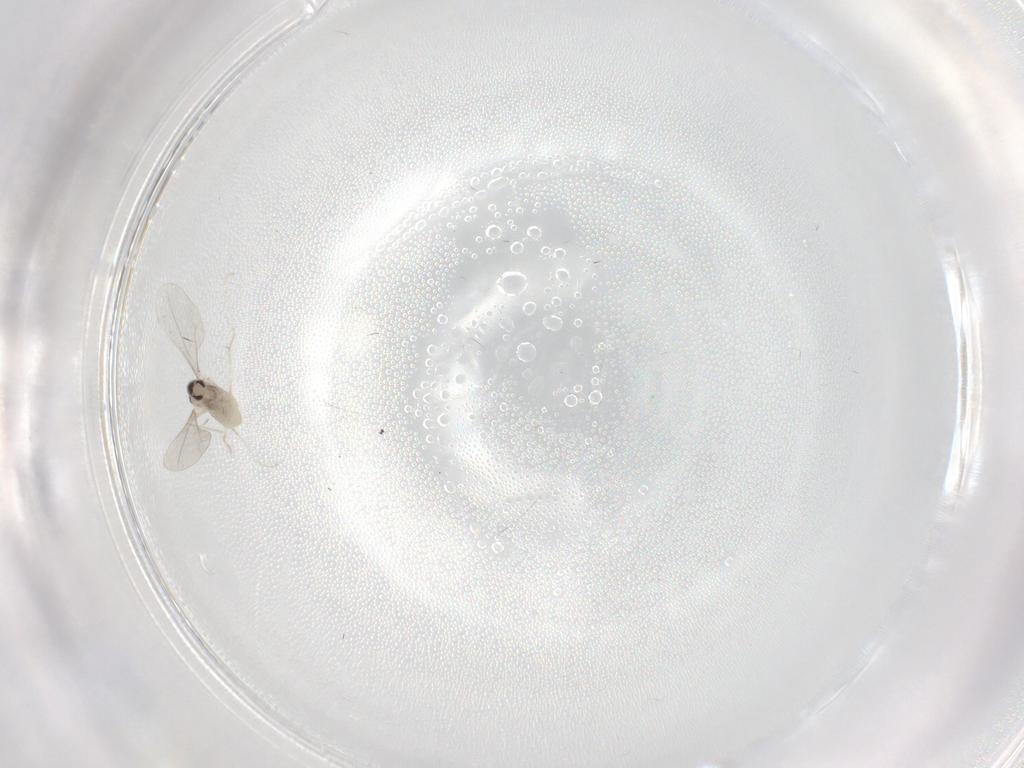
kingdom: Animalia
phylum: Arthropoda
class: Insecta
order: Diptera
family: Cecidomyiidae
